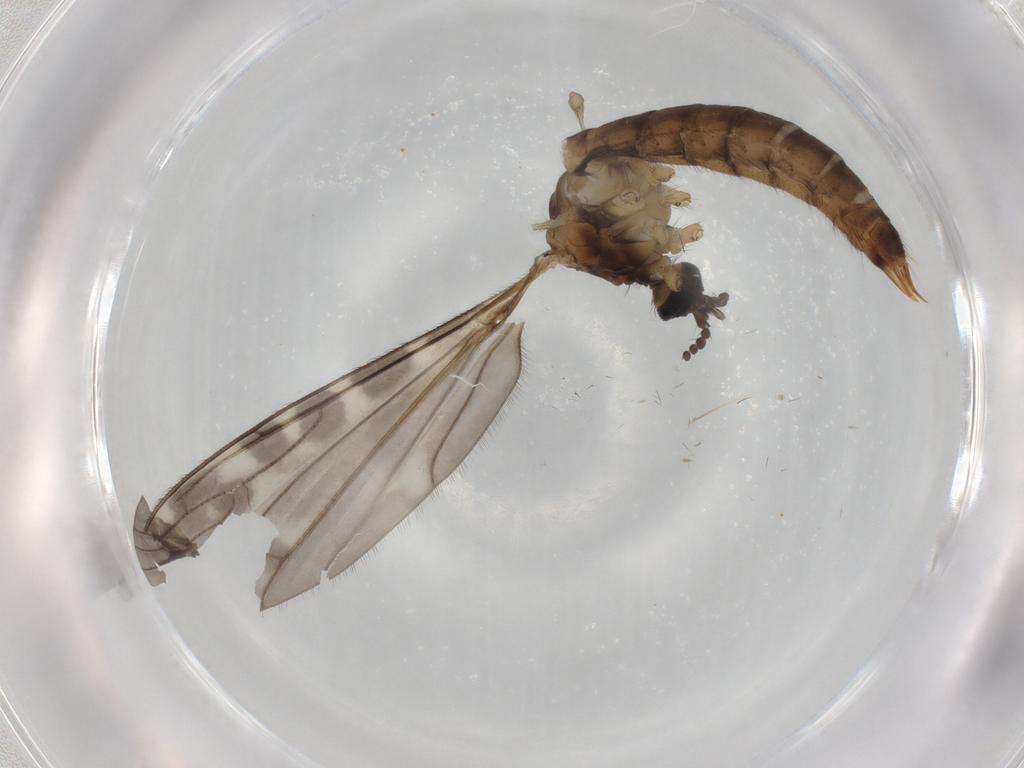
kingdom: Animalia
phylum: Arthropoda
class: Insecta
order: Diptera
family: Limoniidae
